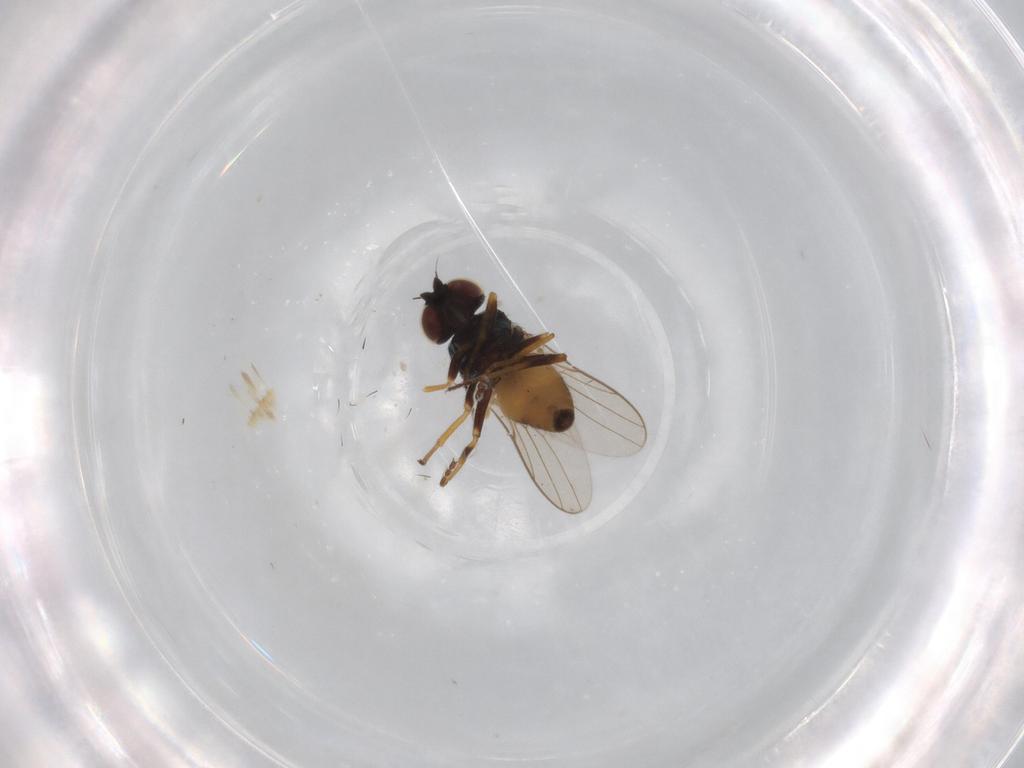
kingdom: Animalia
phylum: Arthropoda
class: Insecta
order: Diptera
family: Chloropidae
